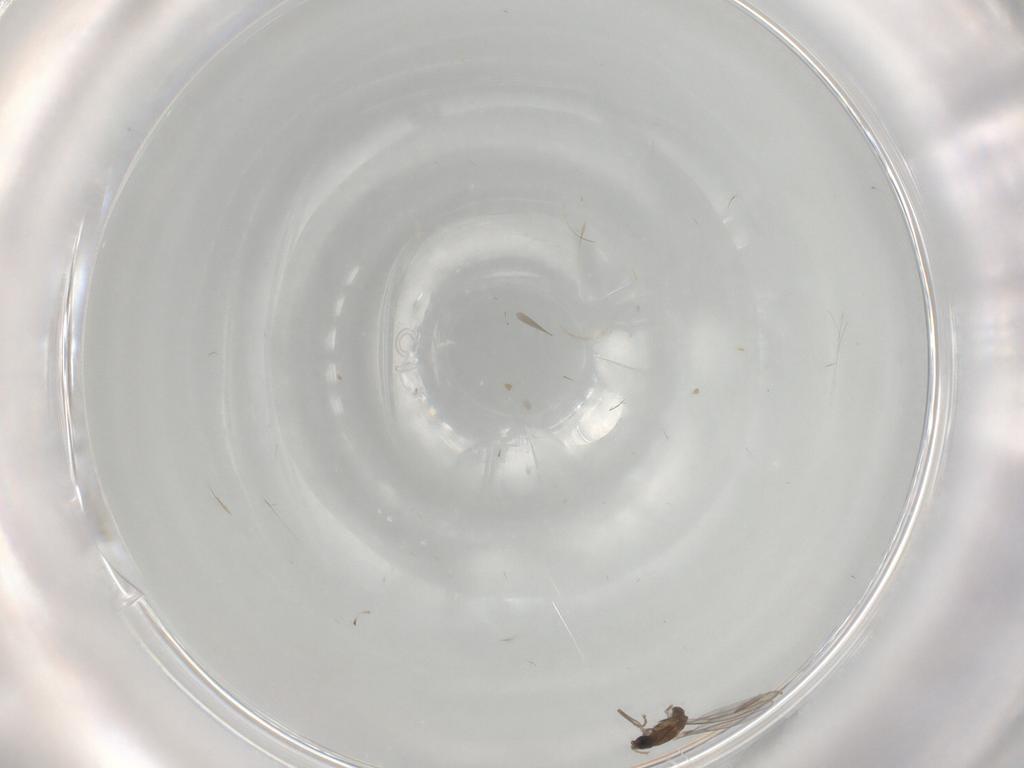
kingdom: Animalia
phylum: Arthropoda
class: Insecta
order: Diptera
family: Cecidomyiidae
